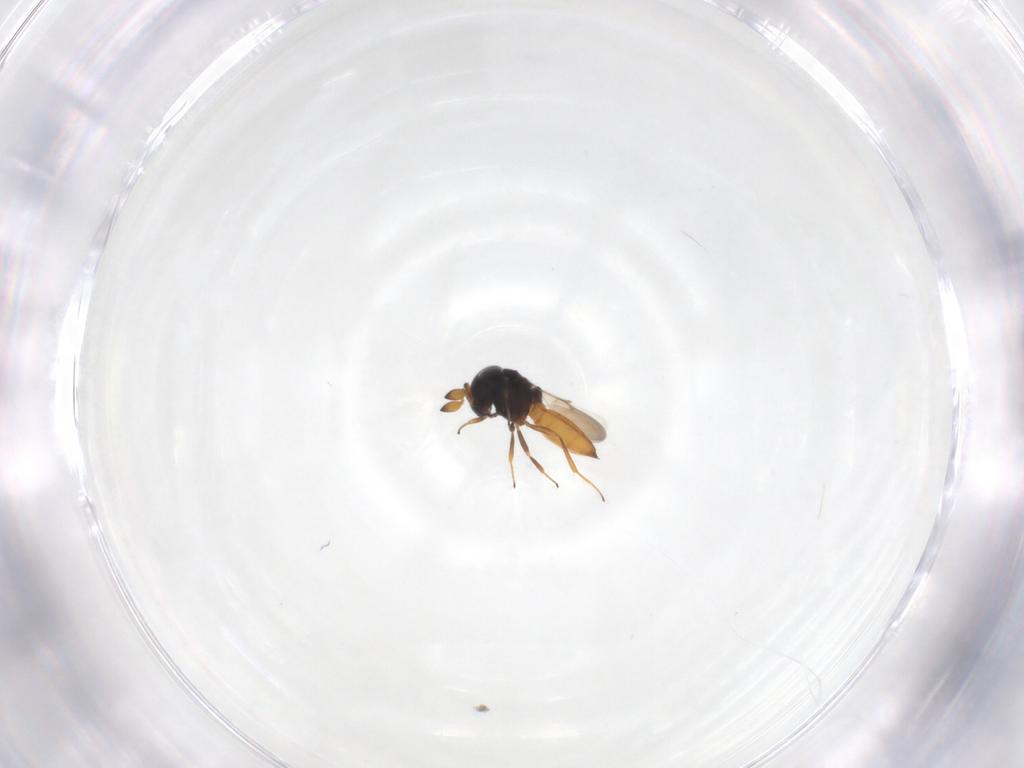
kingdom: Animalia
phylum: Arthropoda
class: Insecta
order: Hymenoptera
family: Scelionidae
